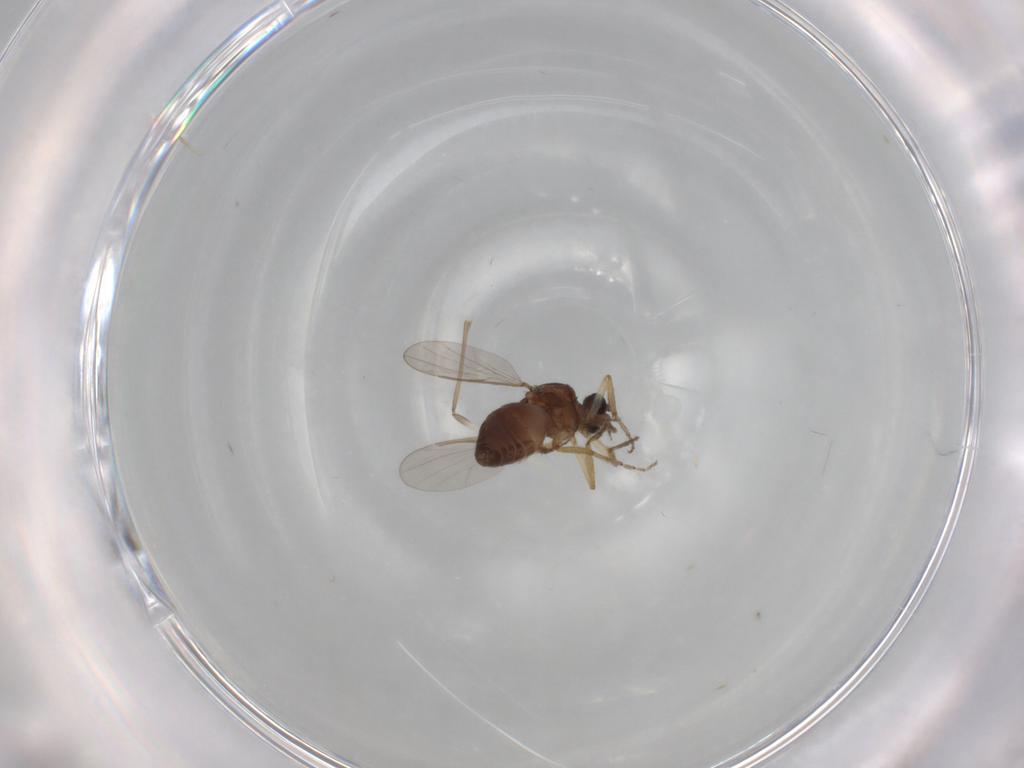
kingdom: Animalia
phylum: Arthropoda
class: Insecta
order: Diptera
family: Ceratopogonidae
